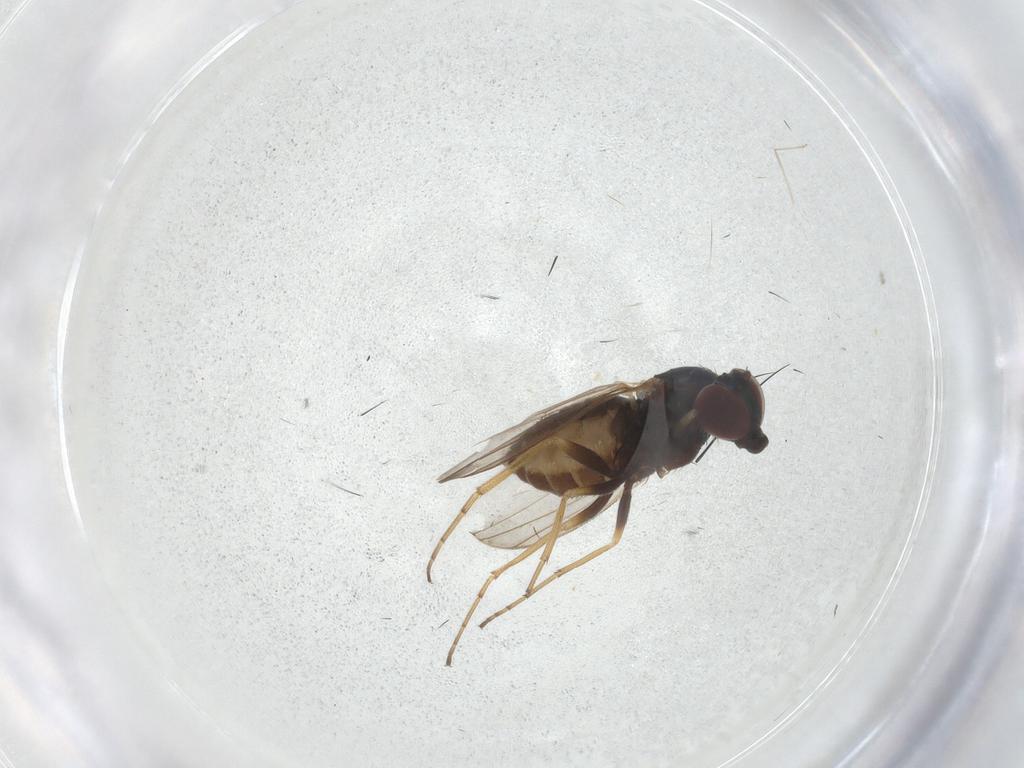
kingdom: Animalia
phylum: Arthropoda
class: Insecta
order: Diptera
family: Dolichopodidae
